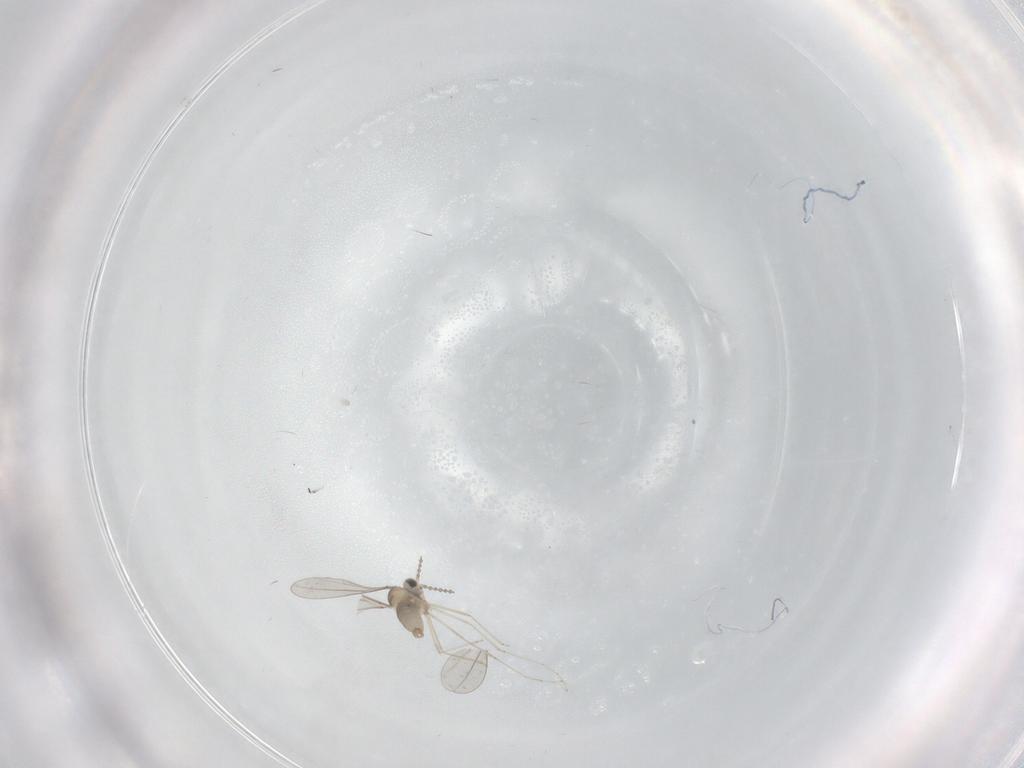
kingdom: Animalia
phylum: Arthropoda
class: Insecta
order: Diptera
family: Cecidomyiidae
